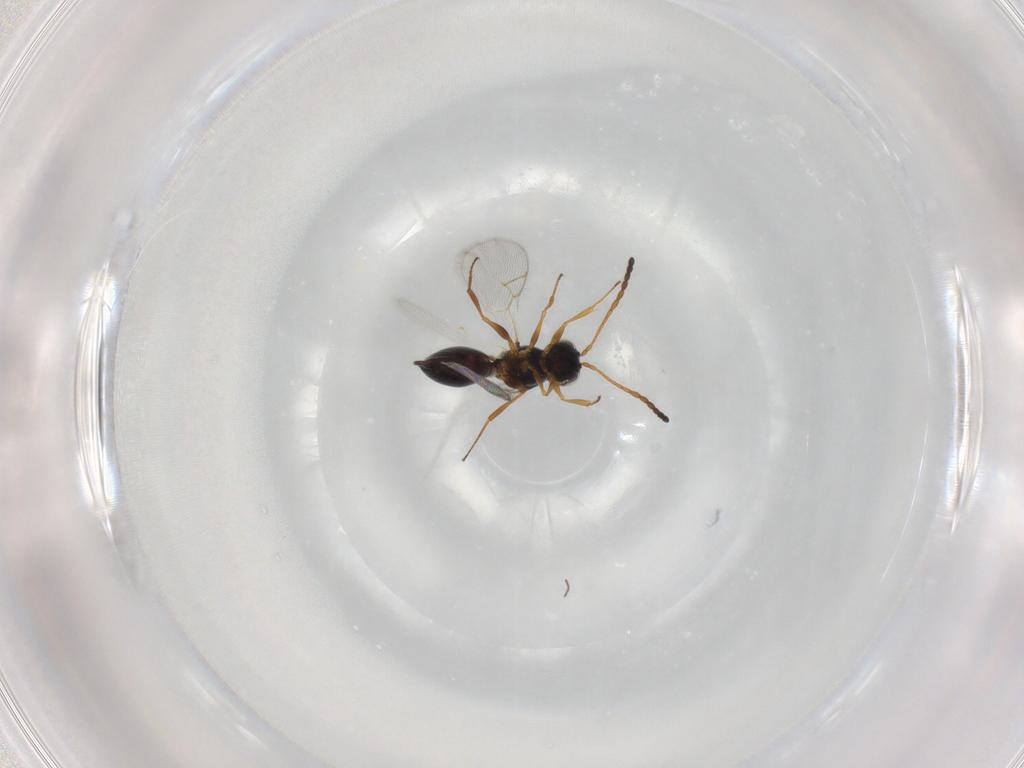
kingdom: Animalia
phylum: Arthropoda
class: Insecta
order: Hymenoptera
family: Figitidae
